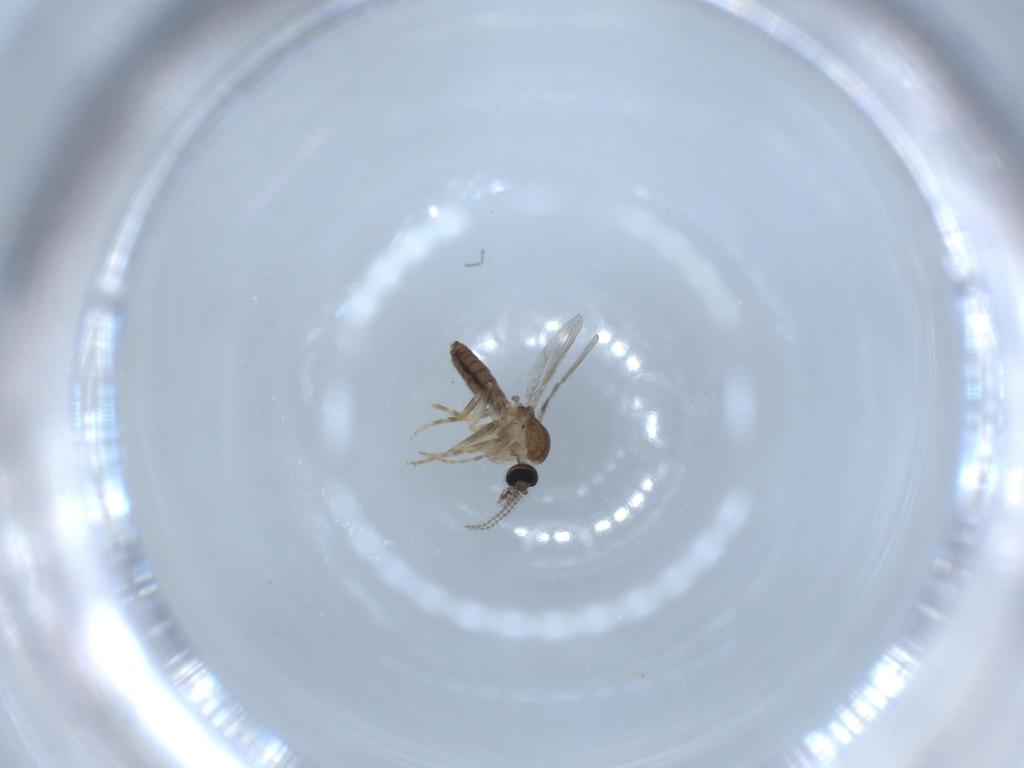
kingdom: Animalia
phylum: Arthropoda
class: Insecta
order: Diptera
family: Ceratopogonidae
